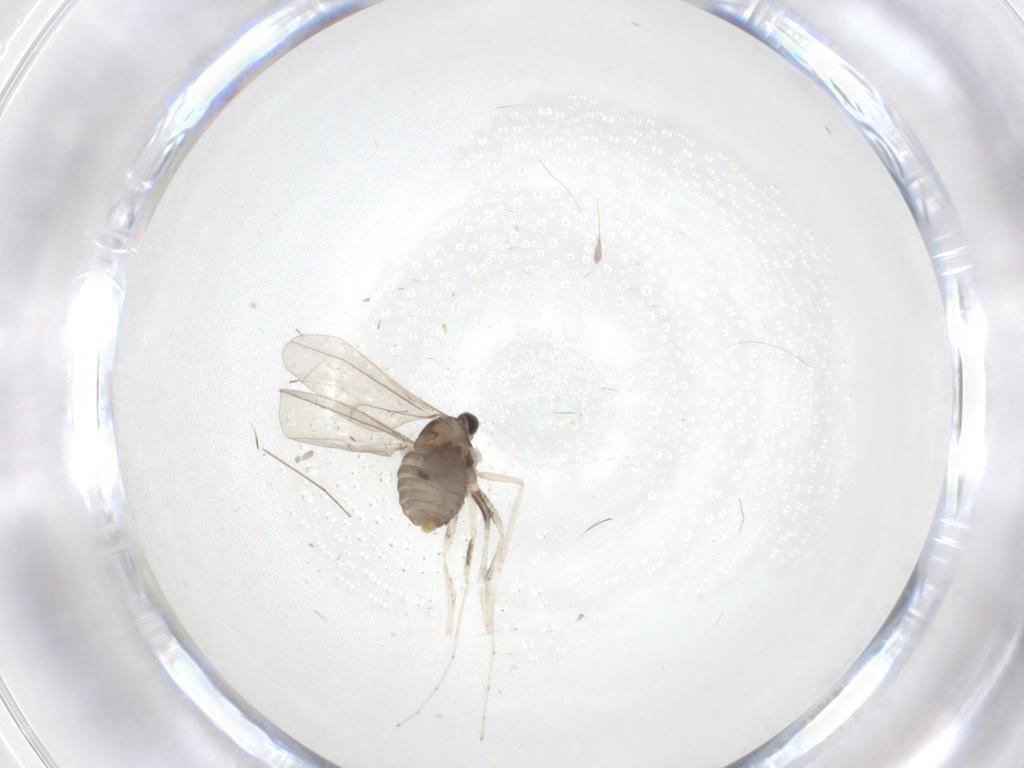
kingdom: Animalia
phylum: Arthropoda
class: Insecta
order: Diptera
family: Cecidomyiidae
